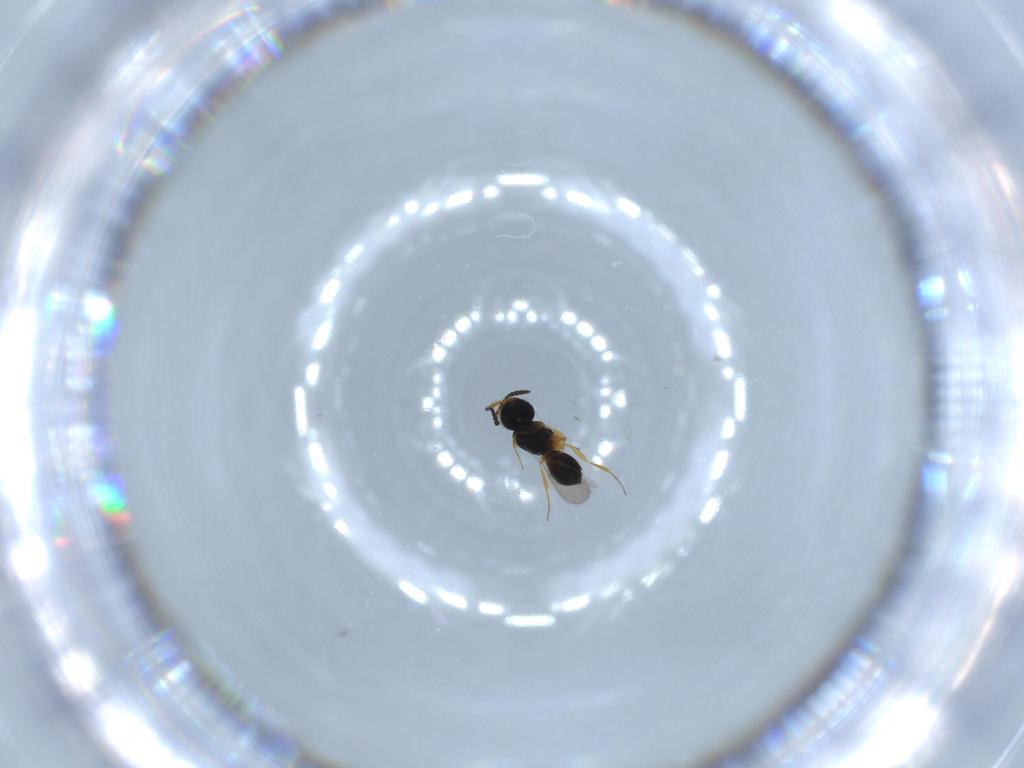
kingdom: Animalia
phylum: Arthropoda
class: Insecta
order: Hymenoptera
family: Scelionidae
